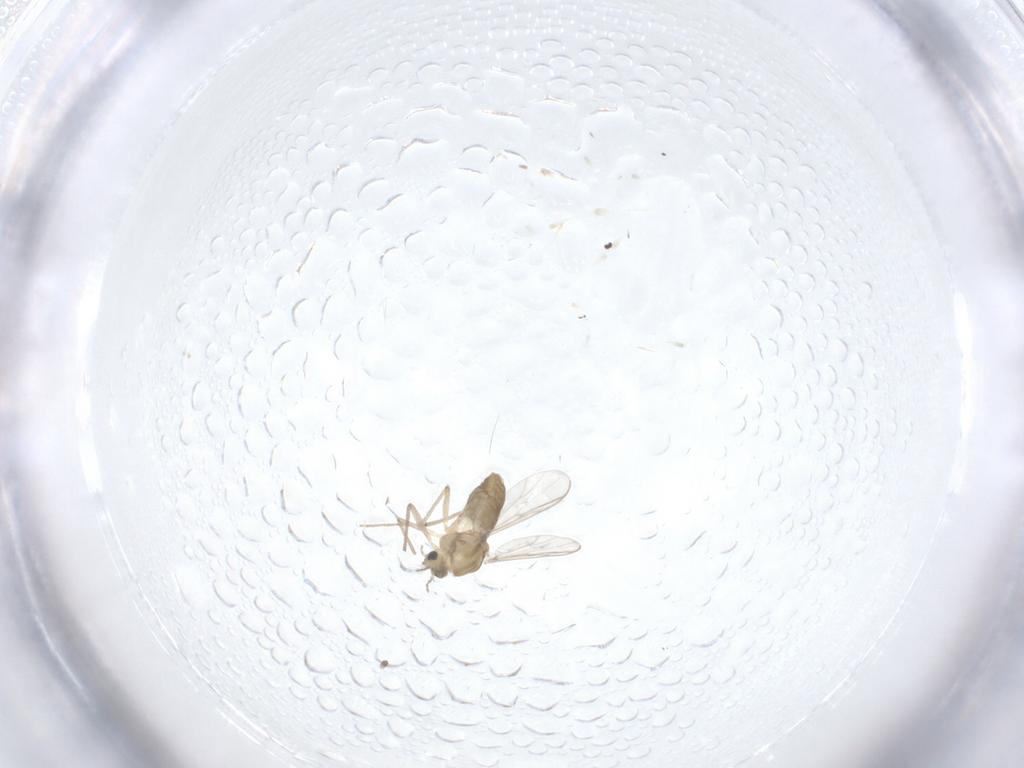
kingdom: Animalia
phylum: Arthropoda
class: Insecta
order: Diptera
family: Chironomidae
